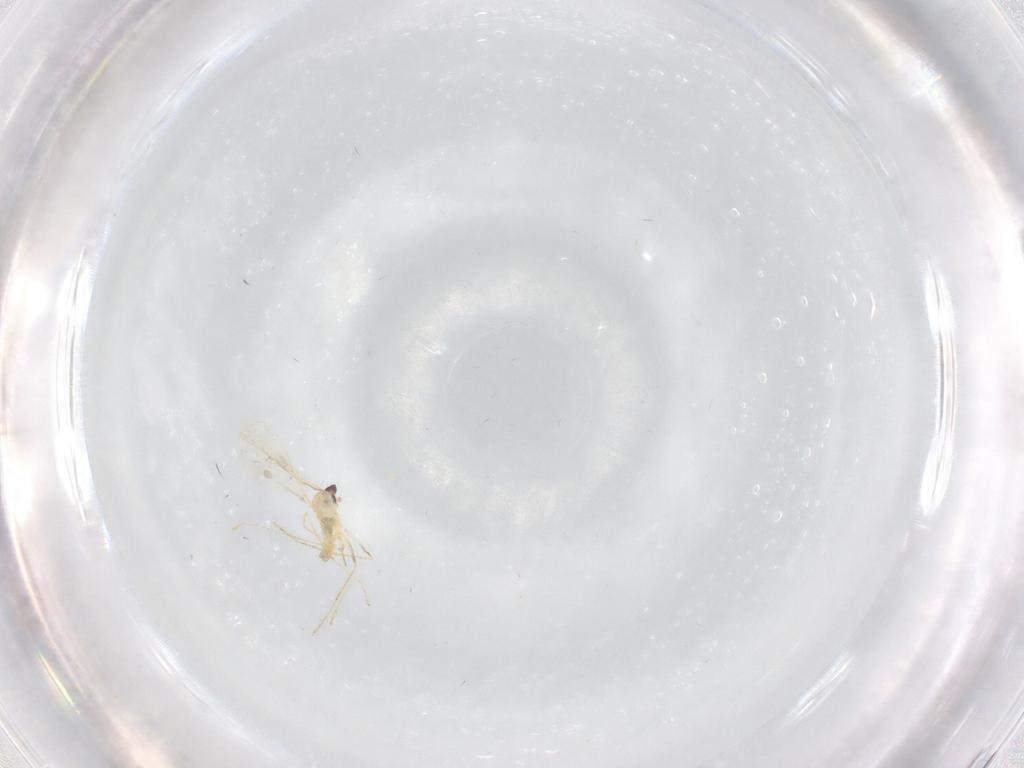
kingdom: Animalia
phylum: Arthropoda
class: Insecta
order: Diptera
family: Cecidomyiidae
